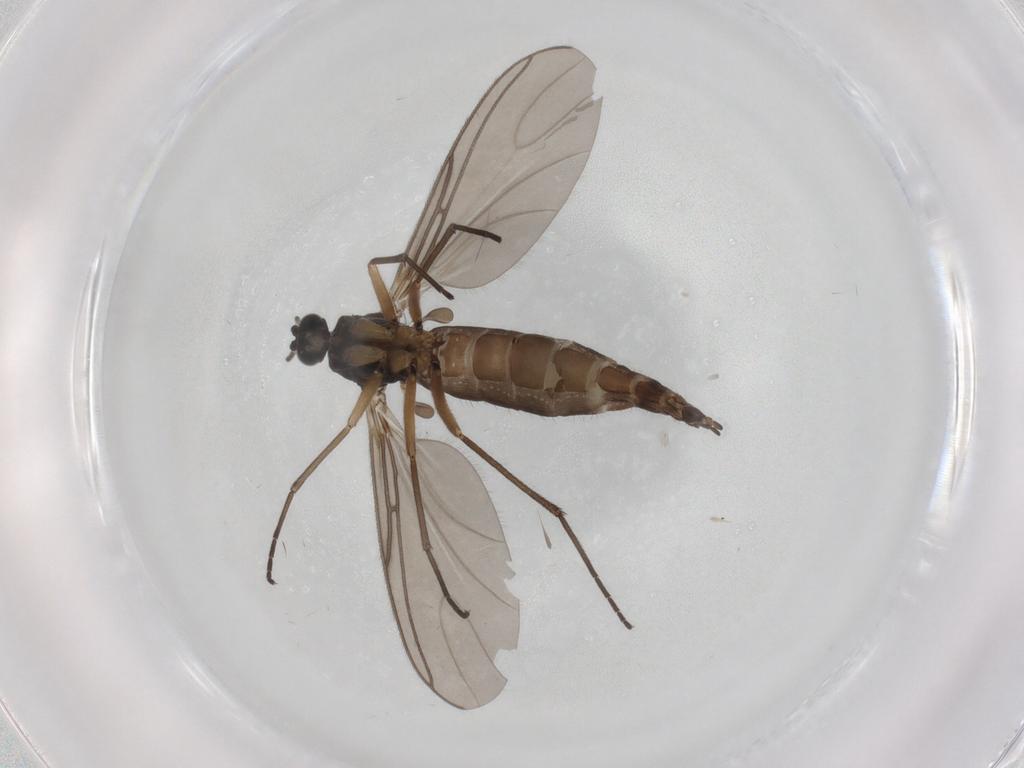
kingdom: Animalia
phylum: Arthropoda
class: Insecta
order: Diptera
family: Sciaridae
